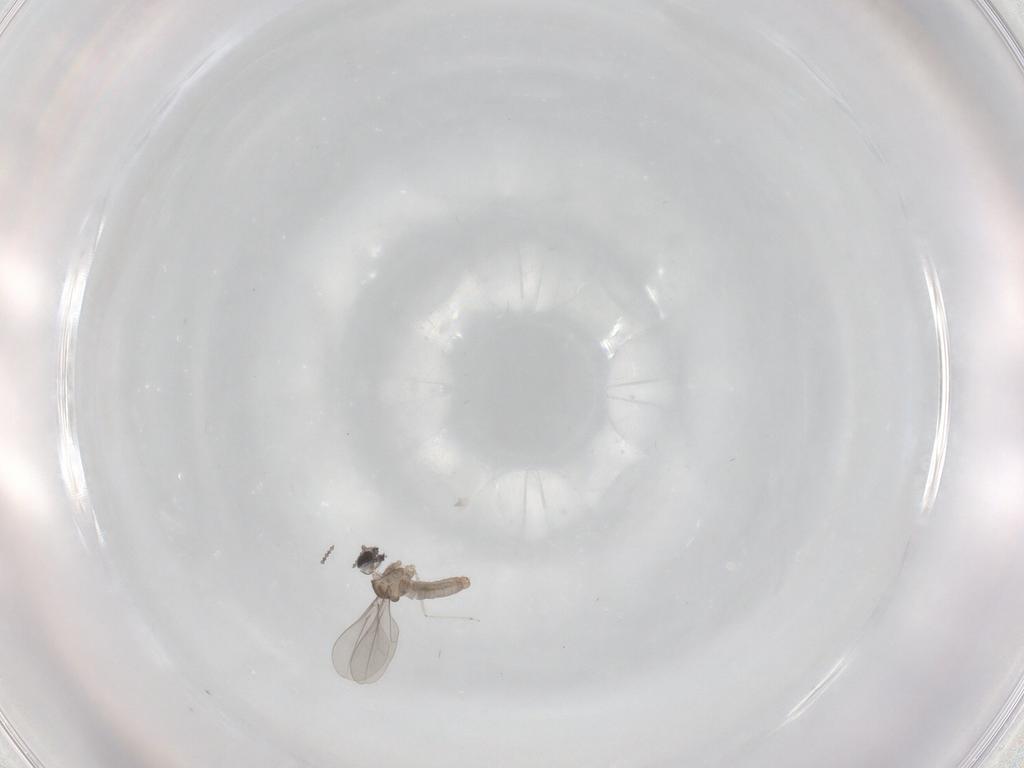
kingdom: Animalia
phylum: Arthropoda
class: Insecta
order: Diptera
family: Cecidomyiidae
